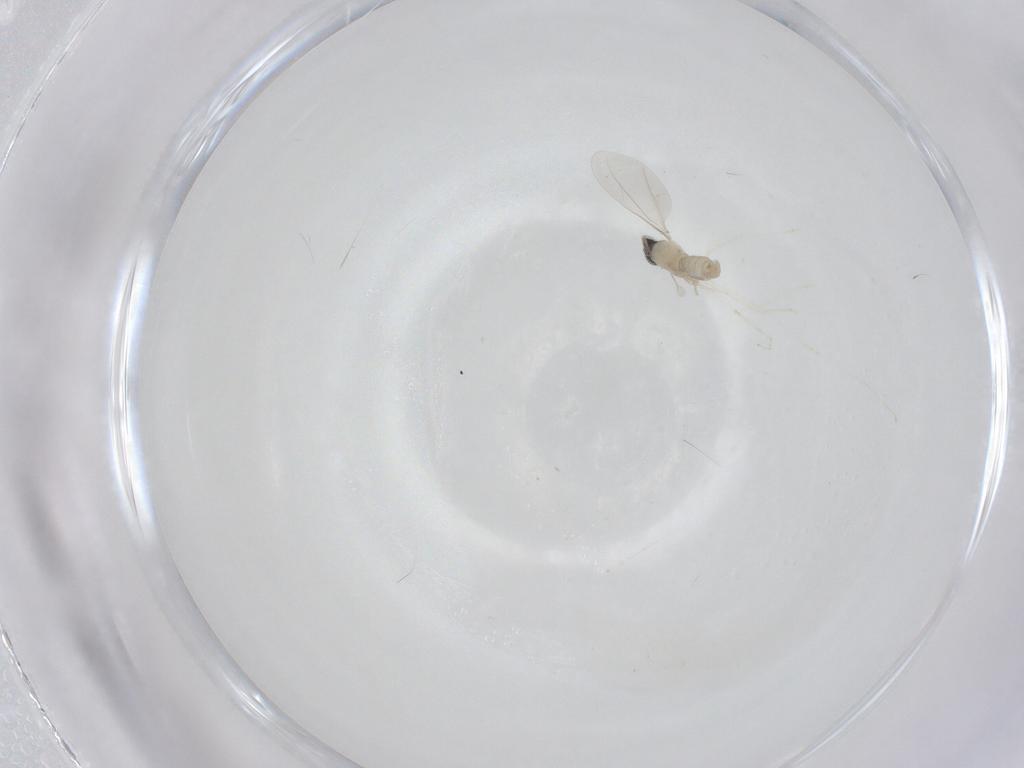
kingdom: Animalia
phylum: Arthropoda
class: Insecta
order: Diptera
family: Cecidomyiidae
